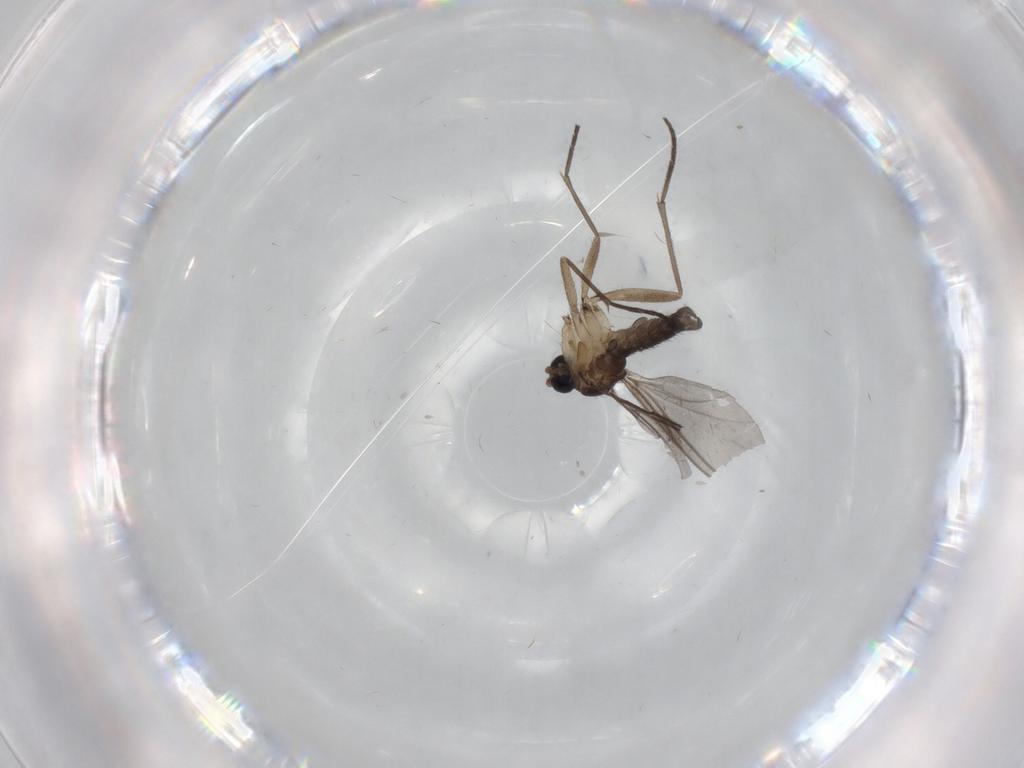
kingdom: Animalia
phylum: Arthropoda
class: Insecta
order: Diptera
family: Sciaridae
